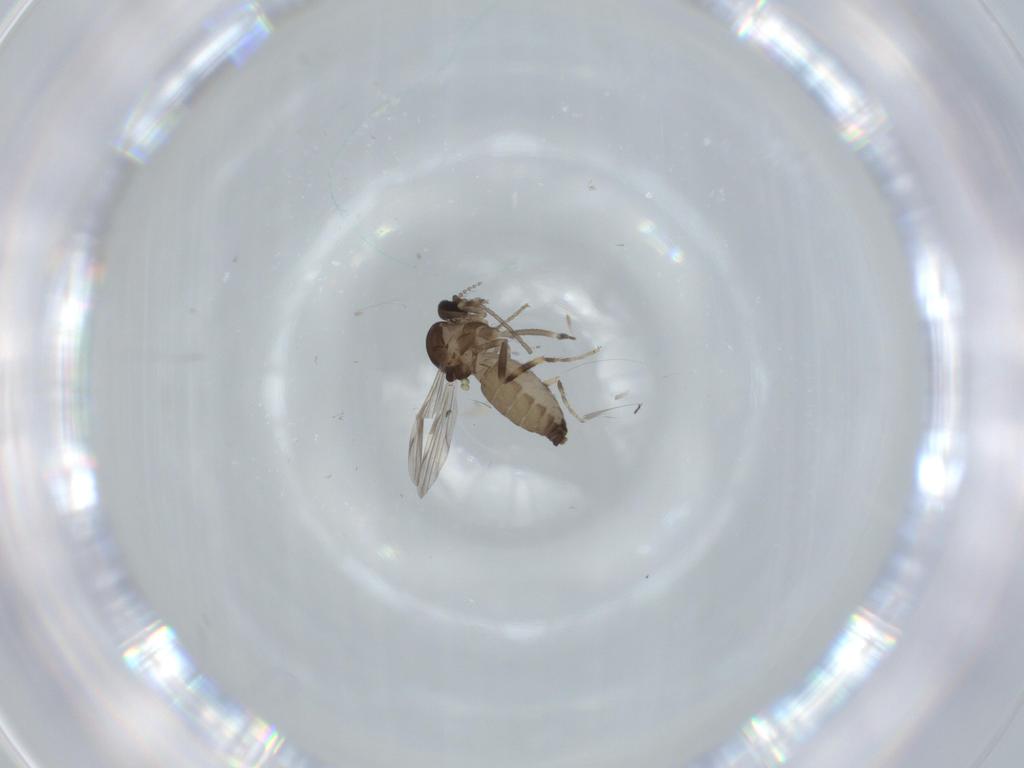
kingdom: Animalia
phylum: Arthropoda
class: Insecta
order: Diptera
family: Ceratopogonidae
